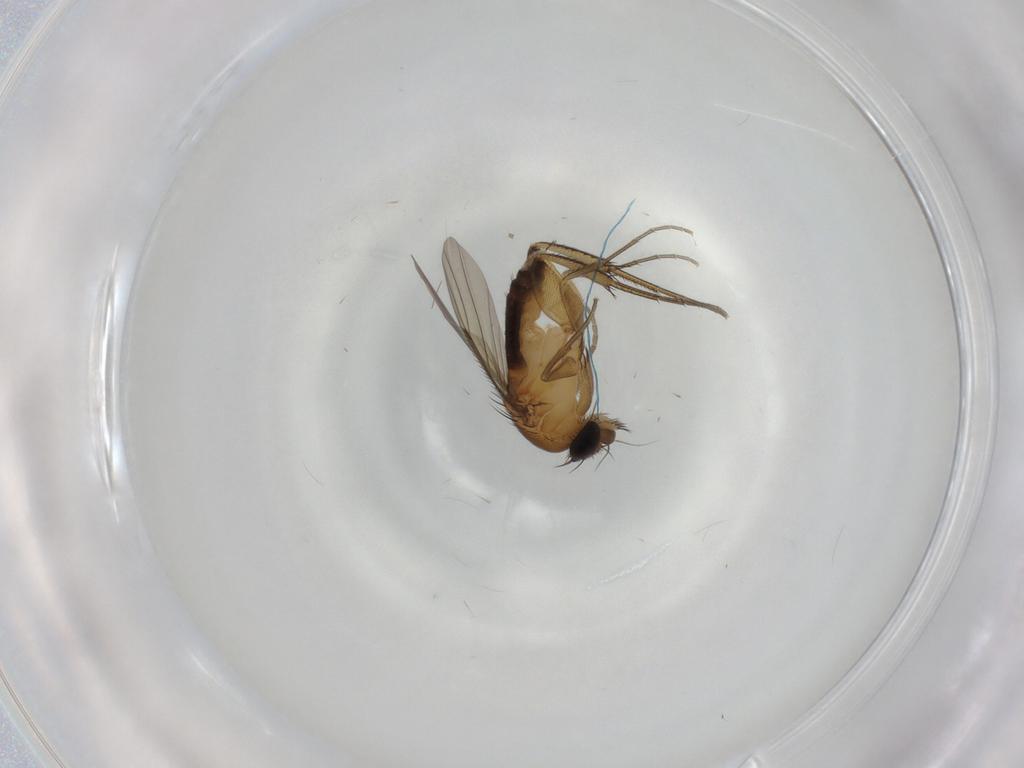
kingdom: Animalia
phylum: Arthropoda
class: Insecta
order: Diptera
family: Phoridae
